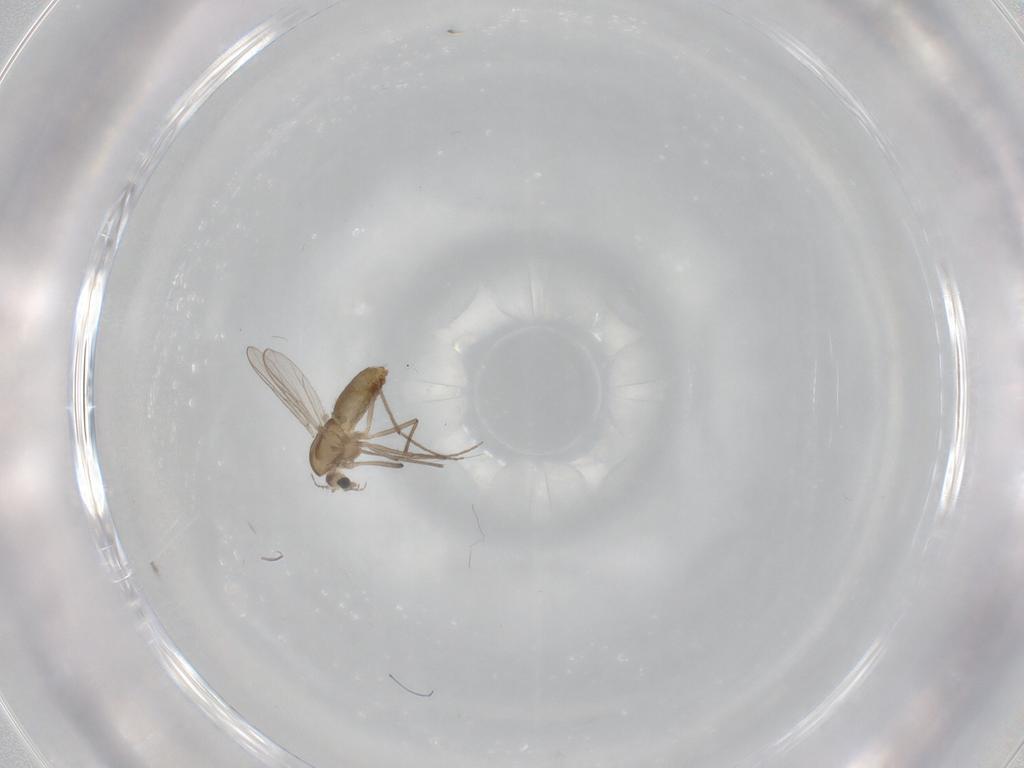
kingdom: Animalia
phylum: Arthropoda
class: Insecta
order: Diptera
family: Chironomidae
